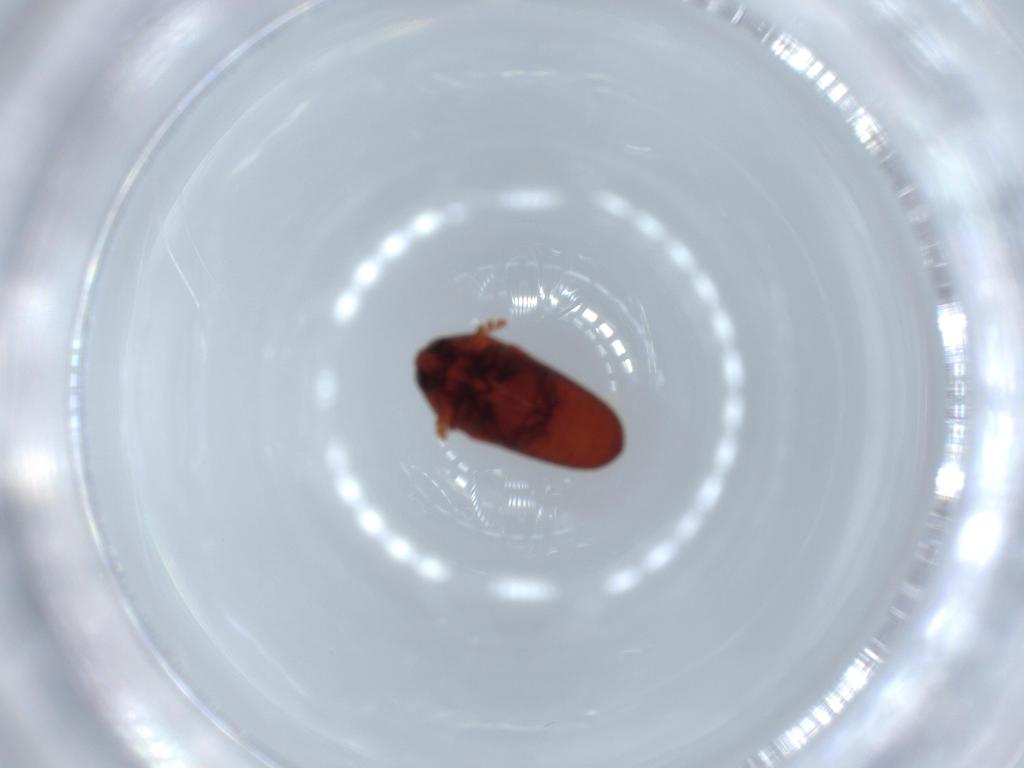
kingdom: Animalia
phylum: Arthropoda
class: Insecta
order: Coleoptera
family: Throscidae
